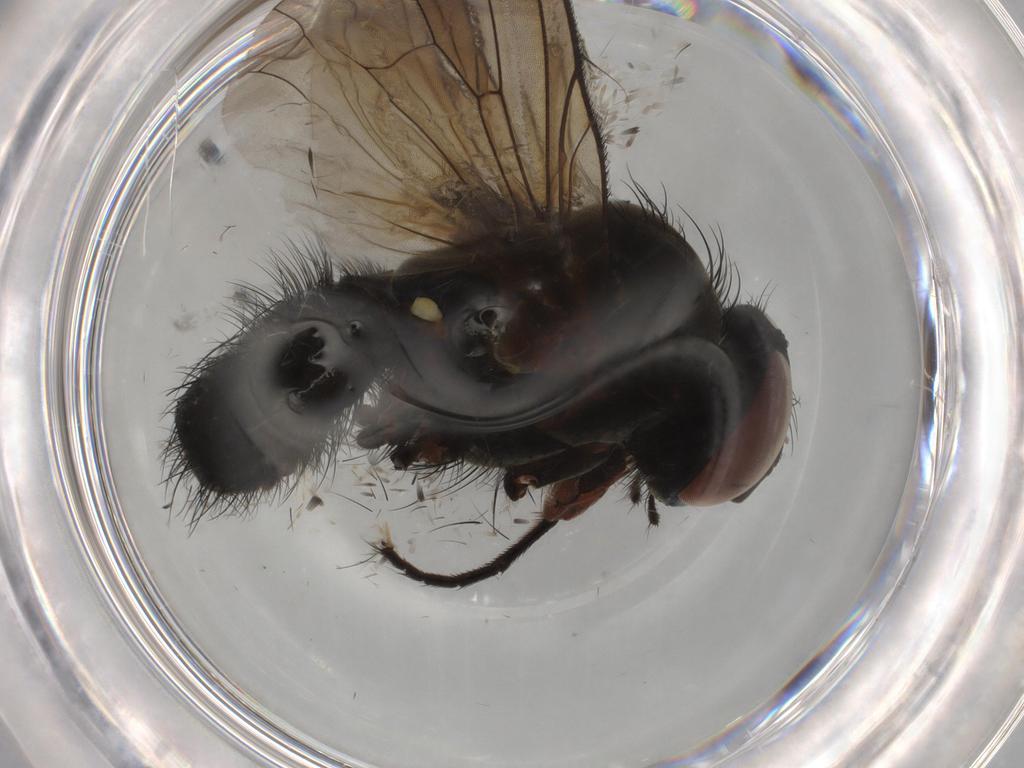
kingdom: Animalia
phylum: Arthropoda
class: Insecta
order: Diptera
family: Anthomyiidae
